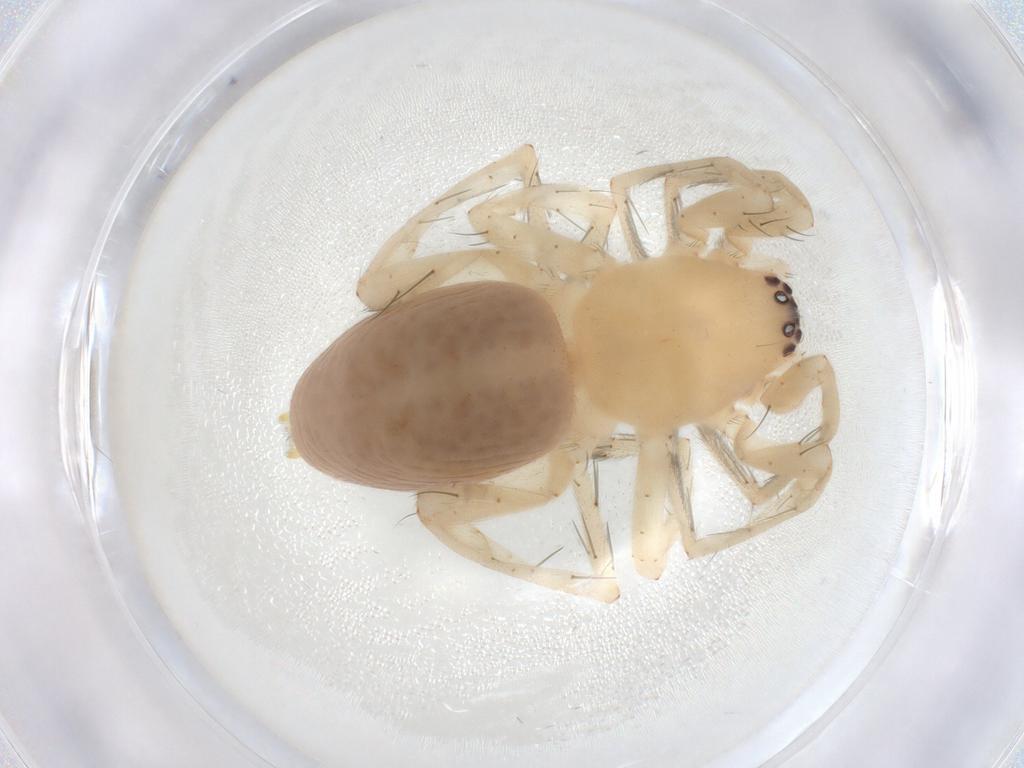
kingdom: Animalia
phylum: Arthropoda
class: Arachnida
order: Araneae
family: Clubionidae
